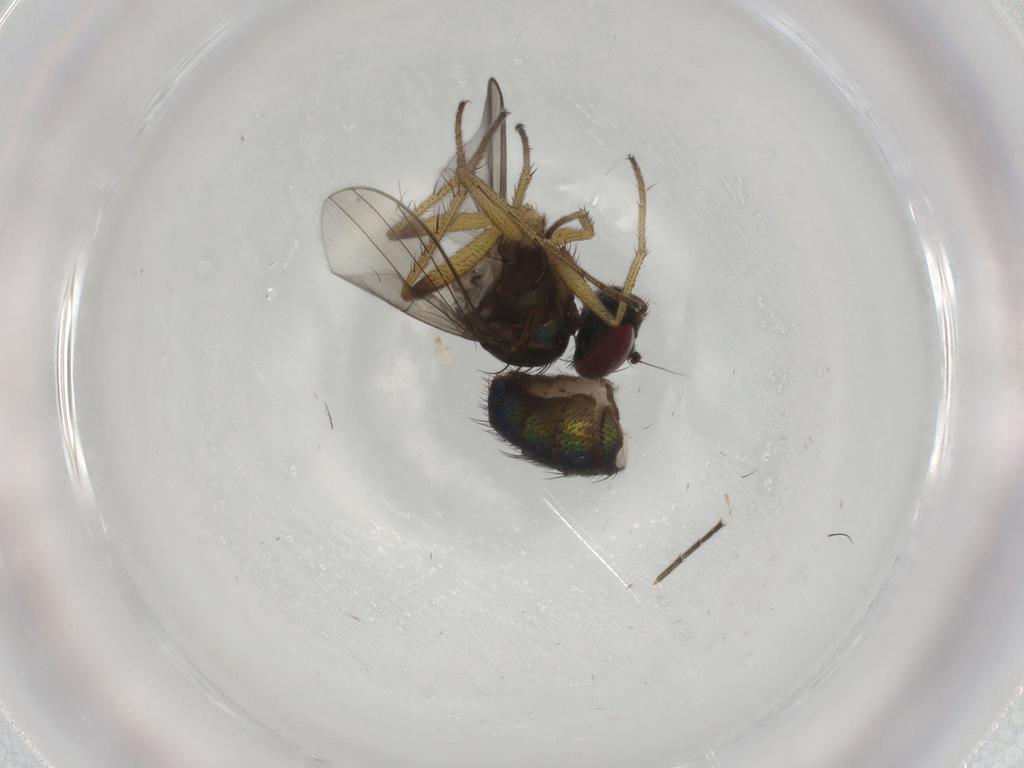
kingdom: Animalia
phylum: Arthropoda
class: Insecta
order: Diptera
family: Dolichopodidae
